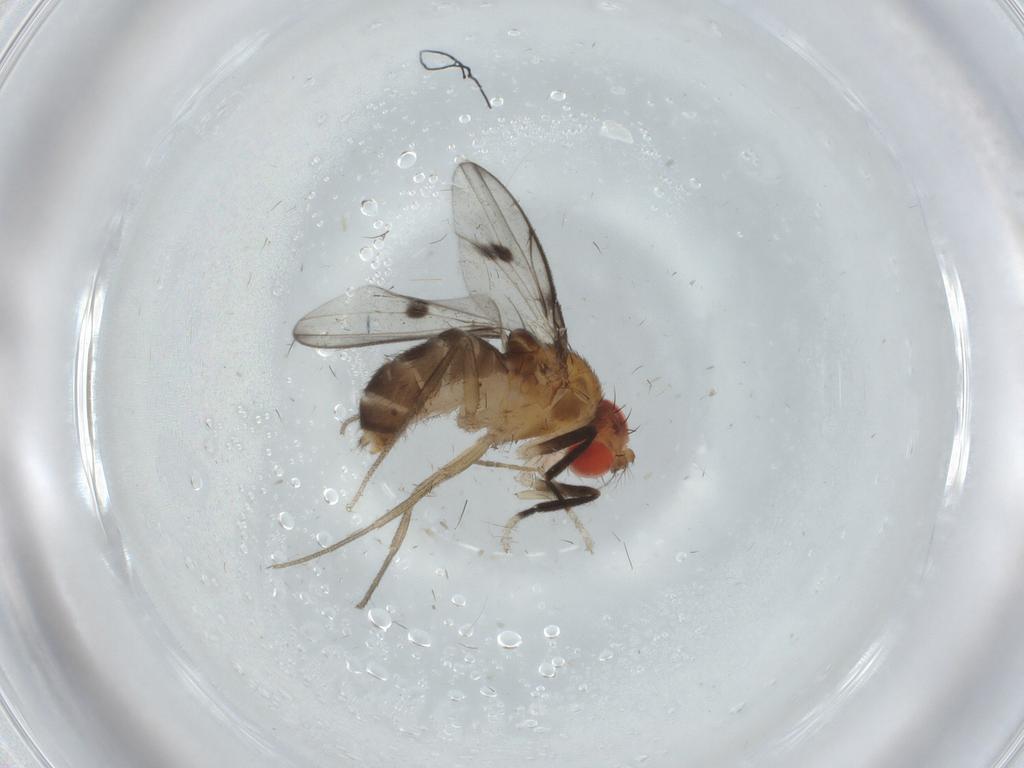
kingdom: Animalia
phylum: Arthropoda
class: Insecta
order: Diptera
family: Drosophilidae
